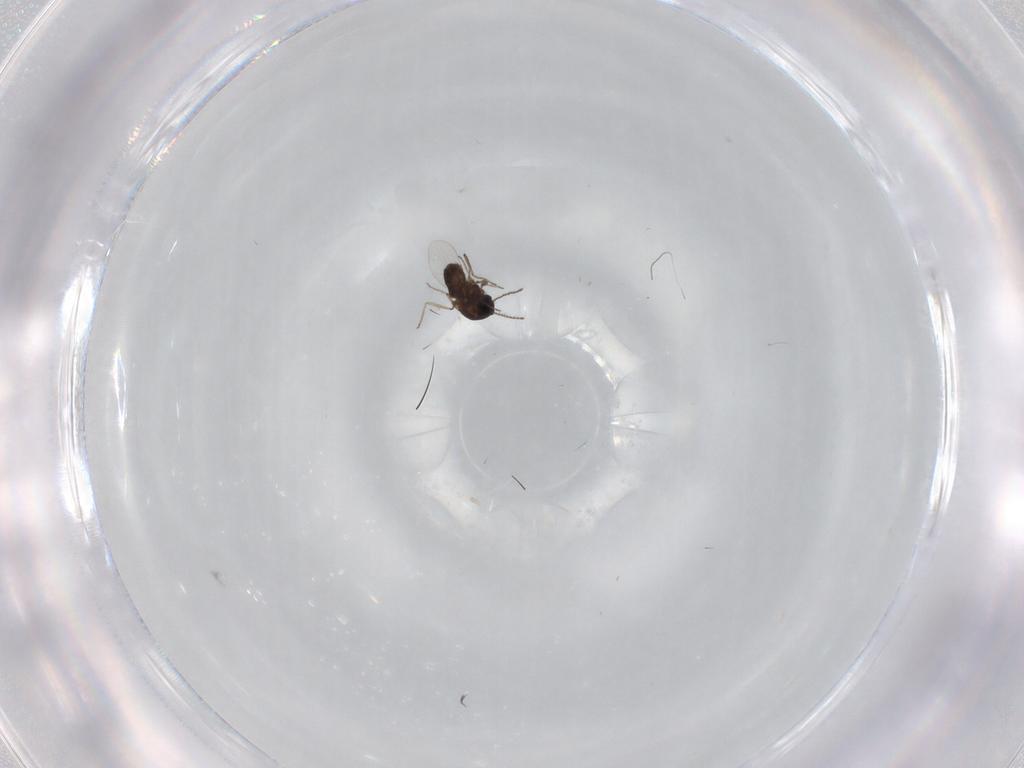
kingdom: Animalia
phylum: Arthropoda
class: Insecta
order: Diptera
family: Ceratopogonidae
